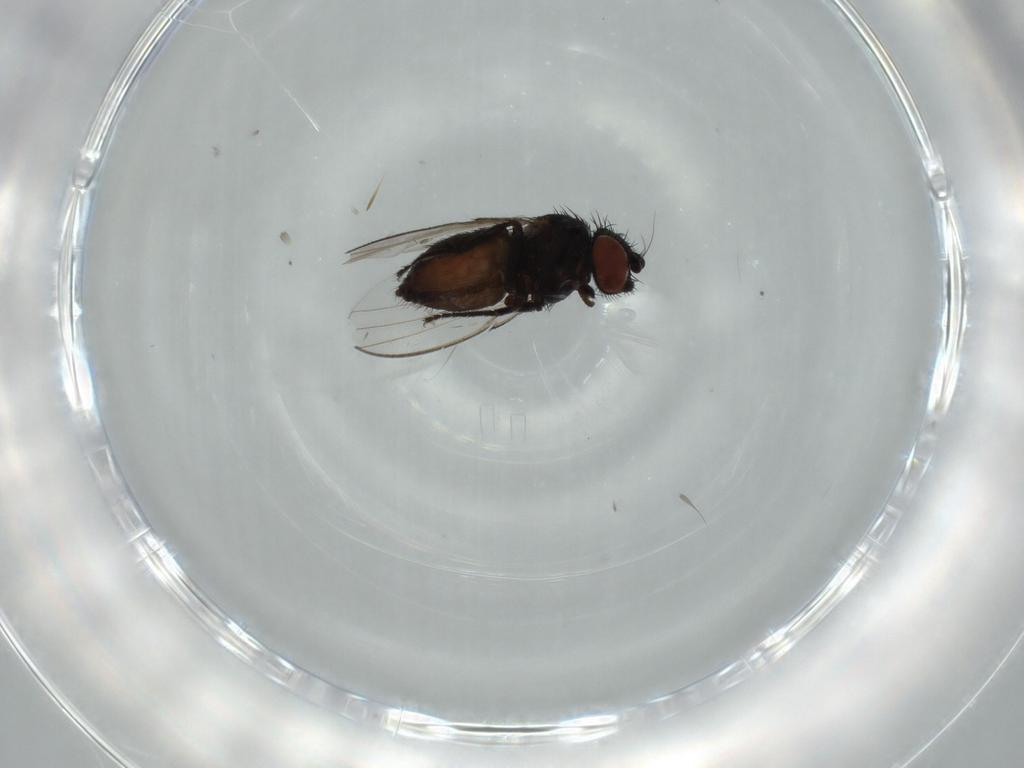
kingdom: Animalia
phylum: Arthropoda
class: Insecta
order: Diptera
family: Milichiidae
